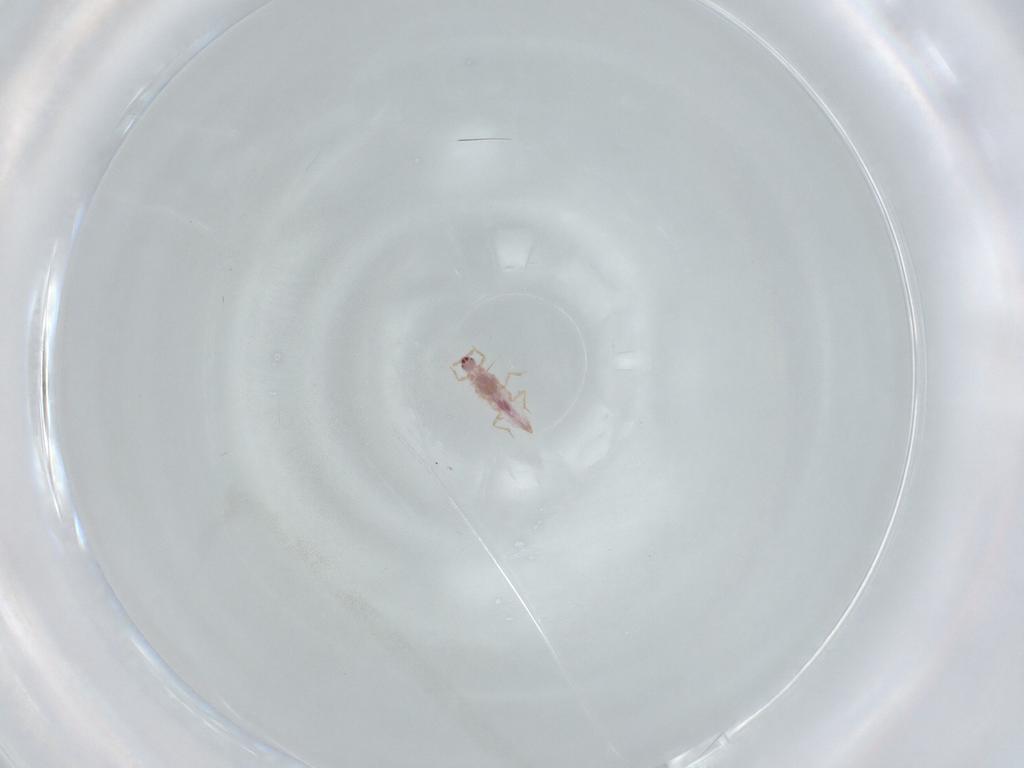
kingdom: Animalia
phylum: Arthropoda
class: Insecta
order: Hemiptera
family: Pseudococcidae
